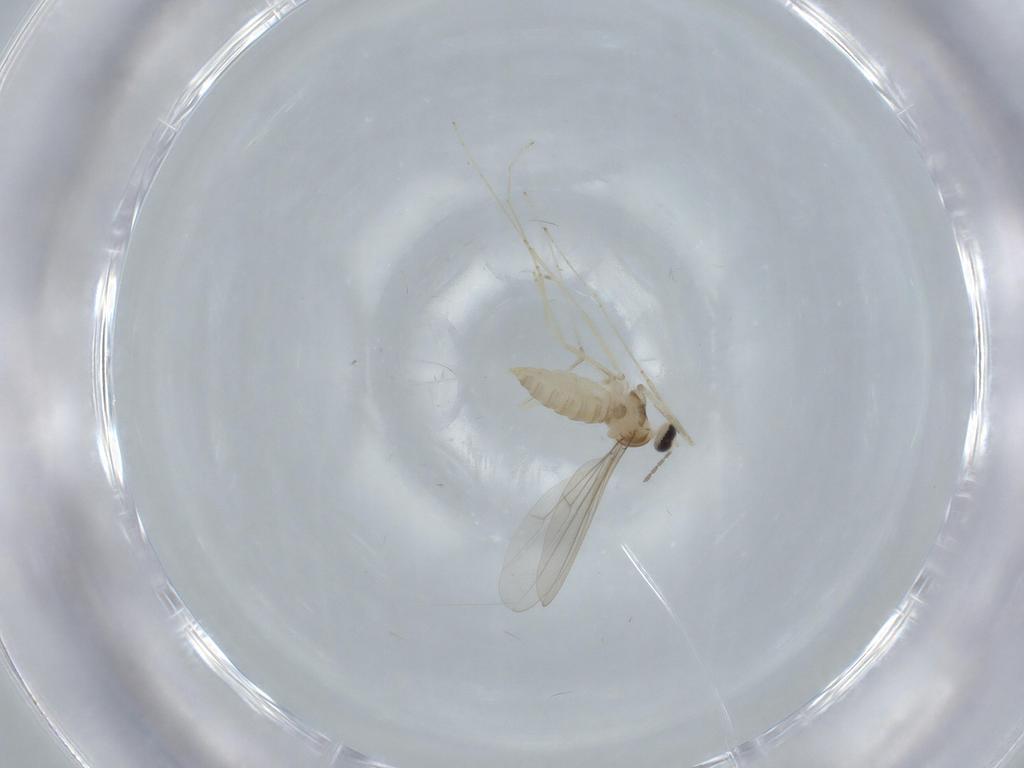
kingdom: Animalia
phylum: Arthropoda
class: Insecta
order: Diptera
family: Cecidomyiidae
